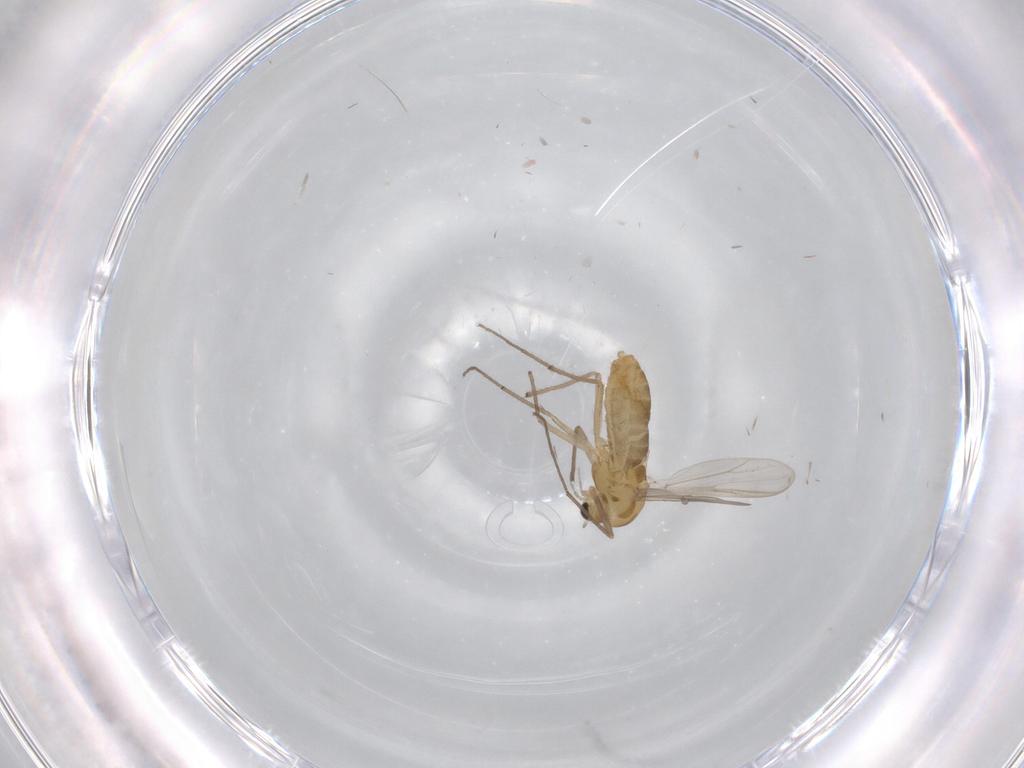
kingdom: Animalia
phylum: Arthropoda
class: Insecta
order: Diptera
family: Chironomidae
